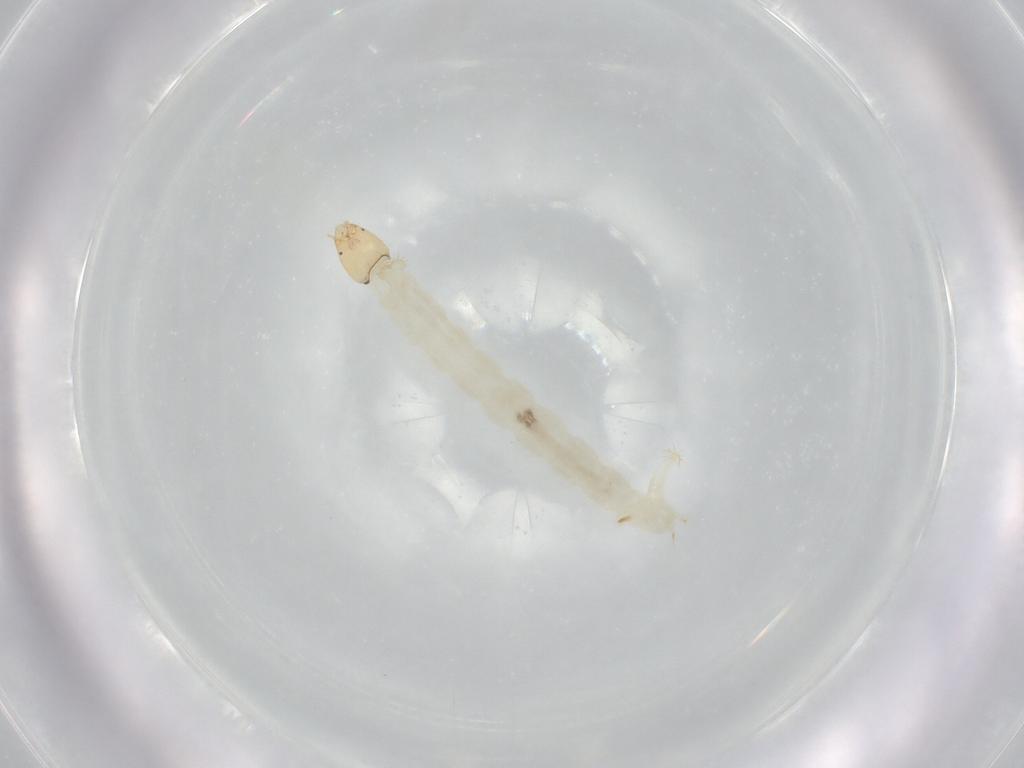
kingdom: Animalia
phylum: Arthropoda
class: Insecta
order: Diptera
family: Chironomidae
